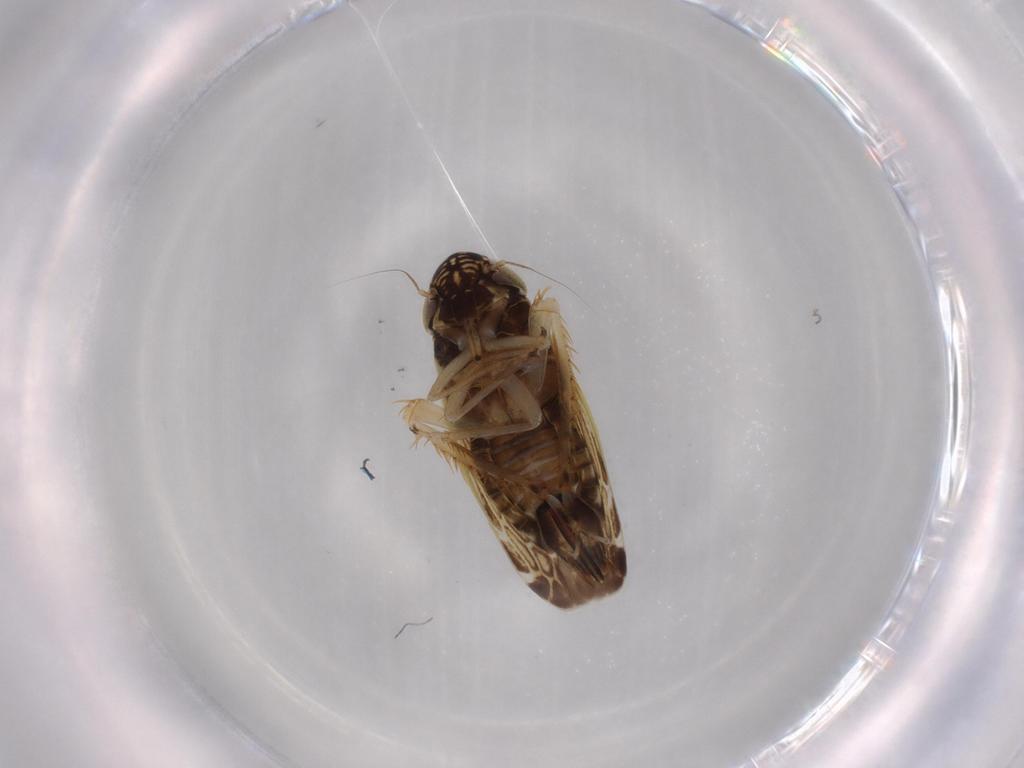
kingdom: Animalia
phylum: Arthropoda
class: Insecta
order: Hemiptera
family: Cicadellidae
